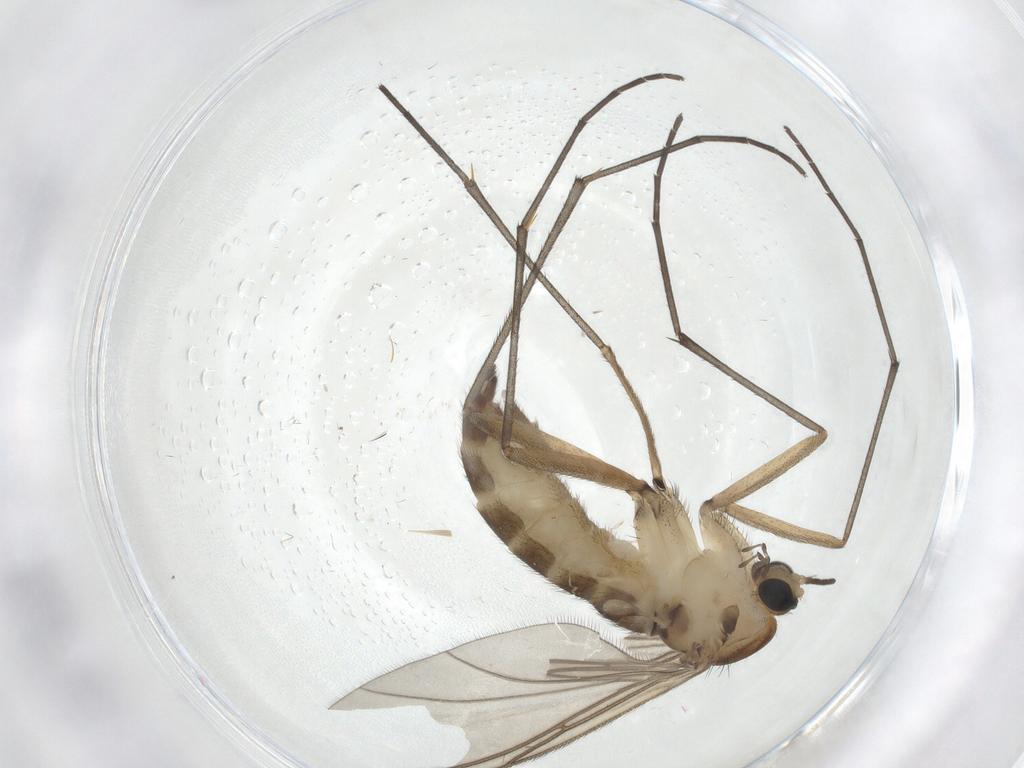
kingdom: Animalia
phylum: Arthropoda
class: Insecta
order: Diptera
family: Sciaridae
